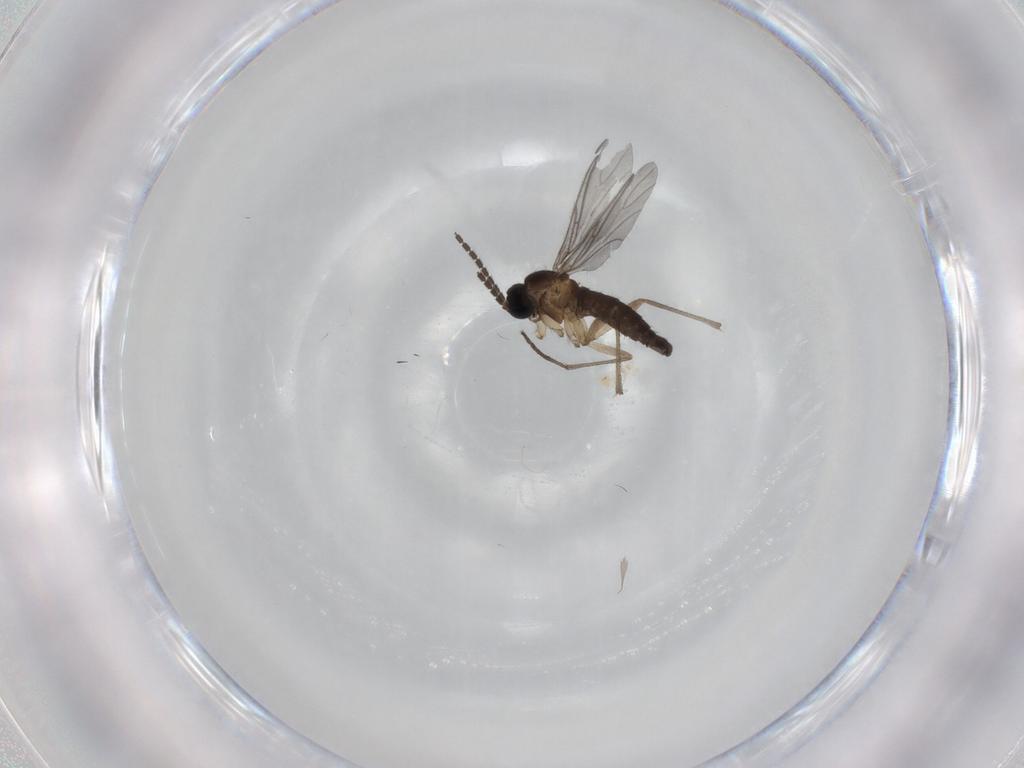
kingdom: Animalia
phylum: Arthropoda
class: Insecta
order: Diptera
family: Sciaridae
